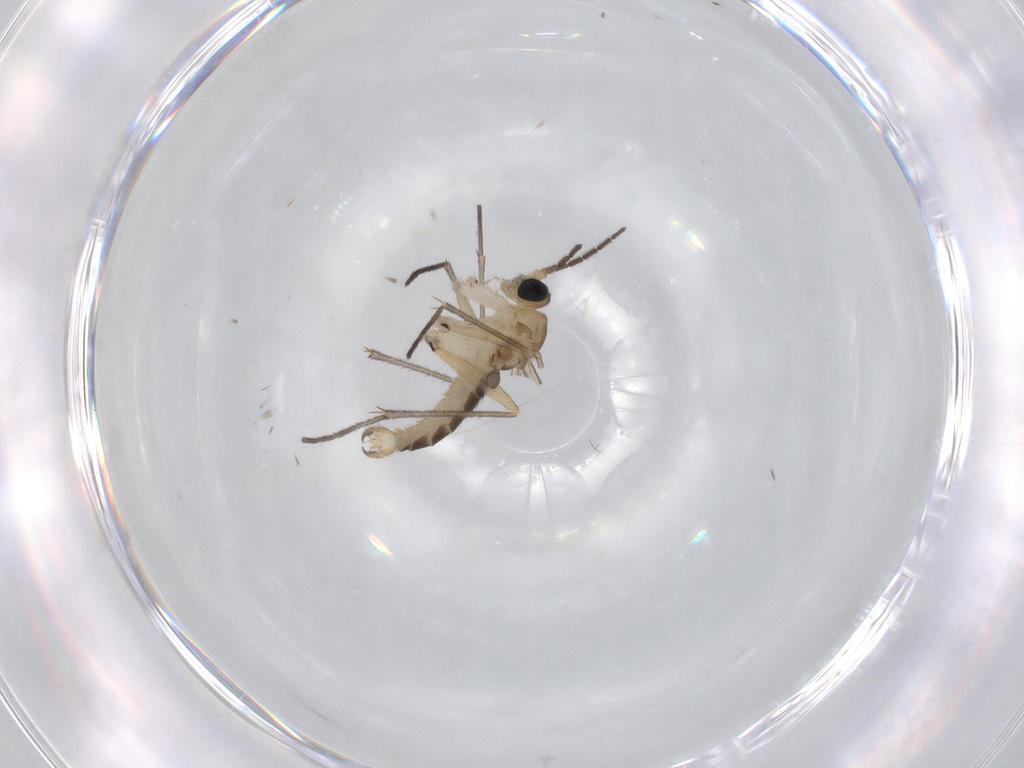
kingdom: Animalia
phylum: Arthropoda
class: Insecta
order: Diptera
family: Sciaridae
